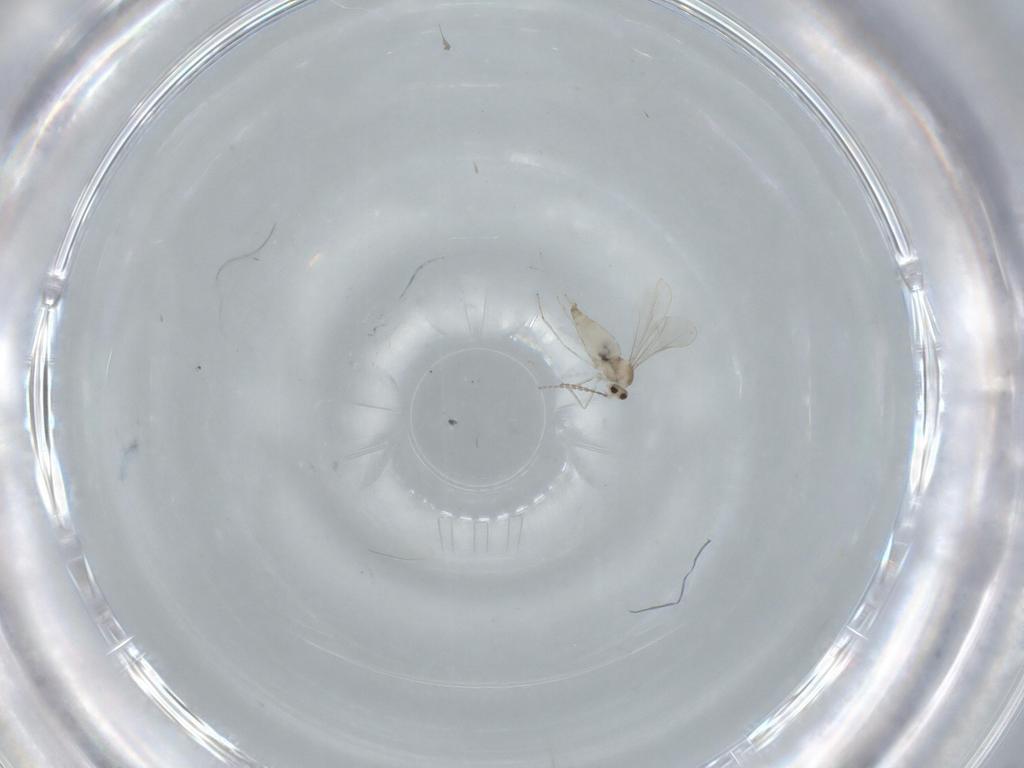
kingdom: Animalia
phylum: Arthropoda
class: Insecta
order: Diptera
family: Cecidomyiidae
